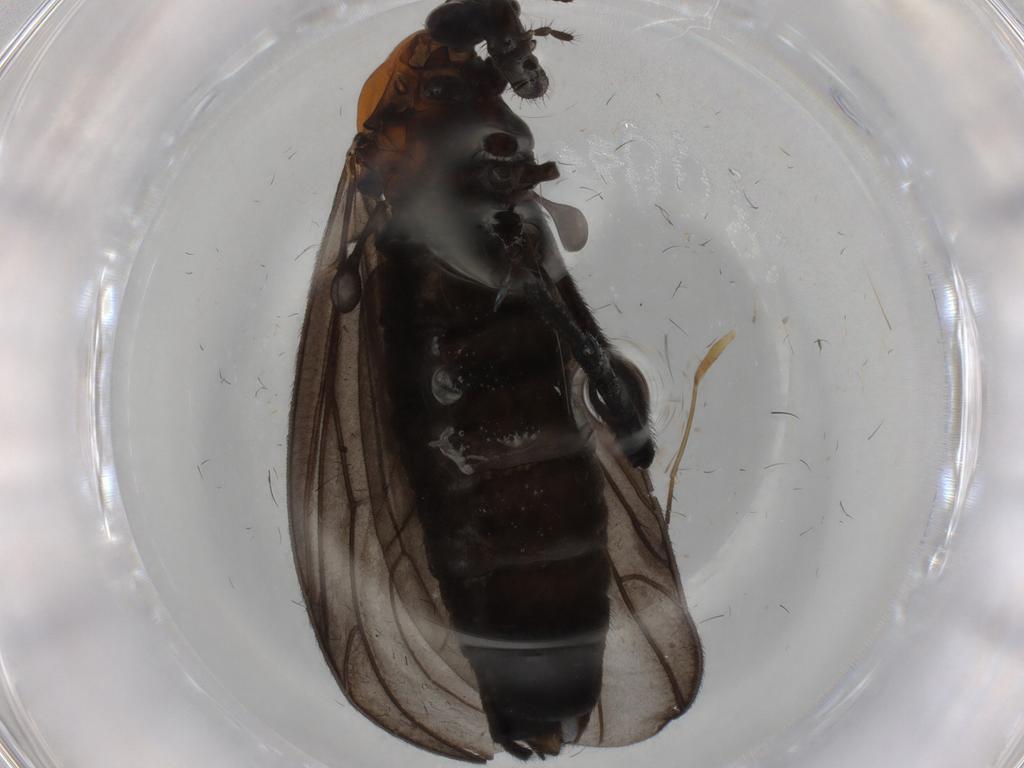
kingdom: Animalia
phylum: Arthropoda
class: Insecta
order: Diptera
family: Bibionidae
